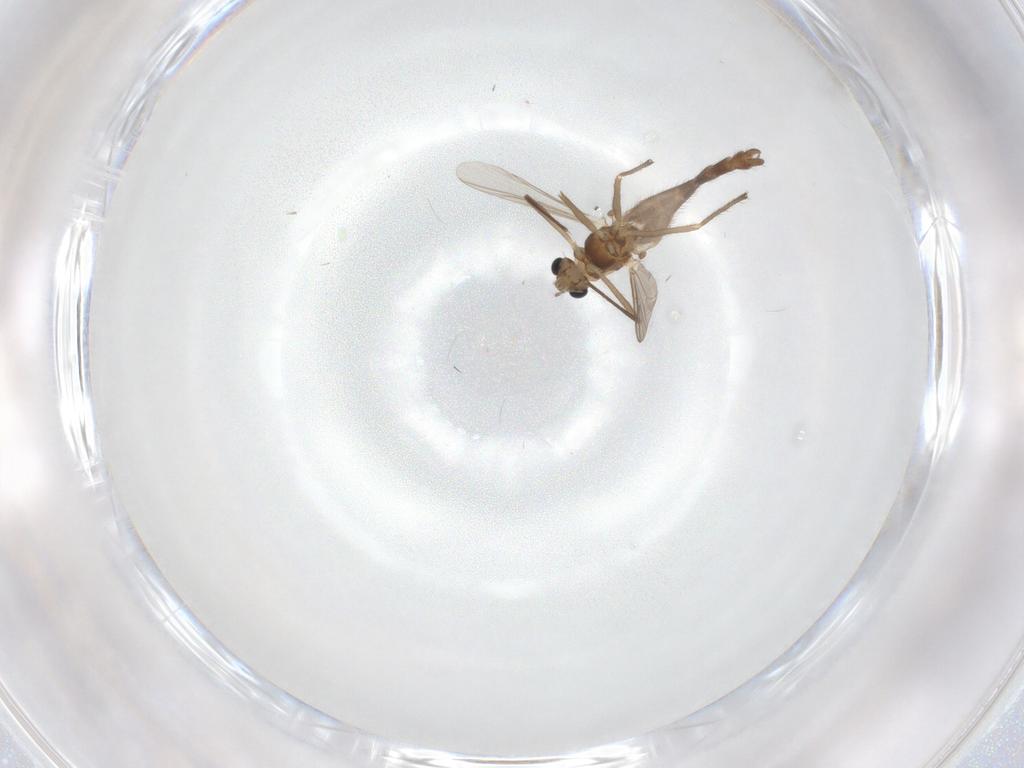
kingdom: Animalia
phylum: Arthropoda
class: Insecta
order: Diptera
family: Chironomidae
